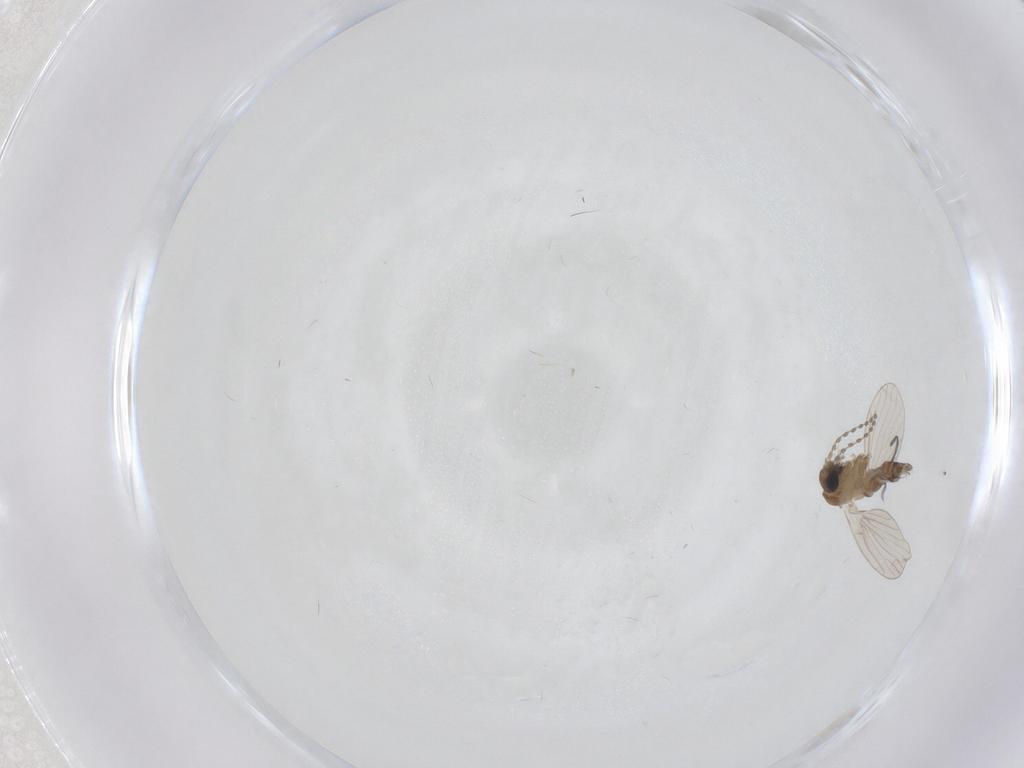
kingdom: Animalia
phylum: Arthropoda
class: Insecta
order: Diptera
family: Psychodidae
